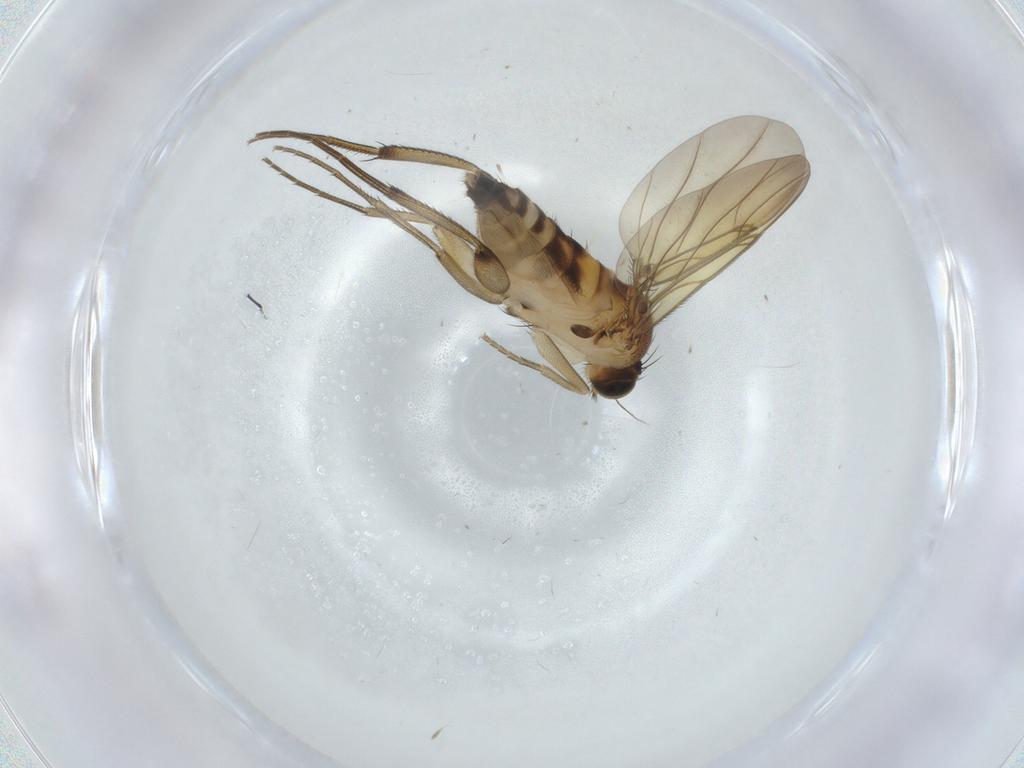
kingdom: Animalia
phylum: Arthropoda
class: Insecta
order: Diptera
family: Phoridae
